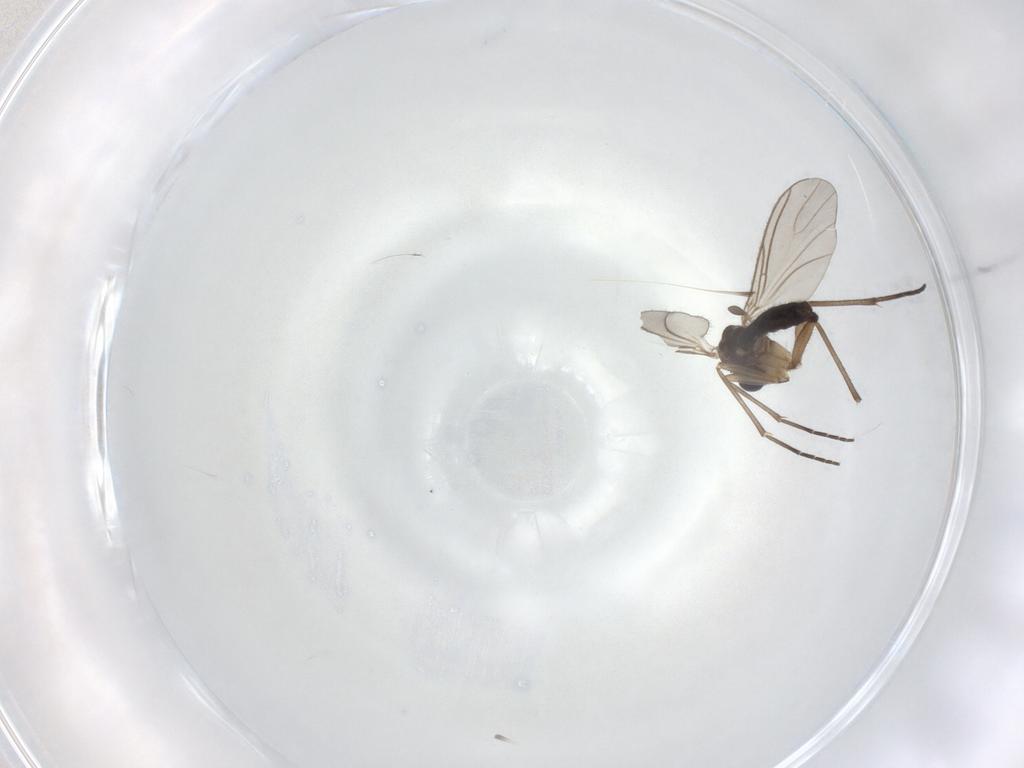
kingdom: Animalia
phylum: Arthropoda
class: Insecta
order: Diptera
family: Sciaridae
